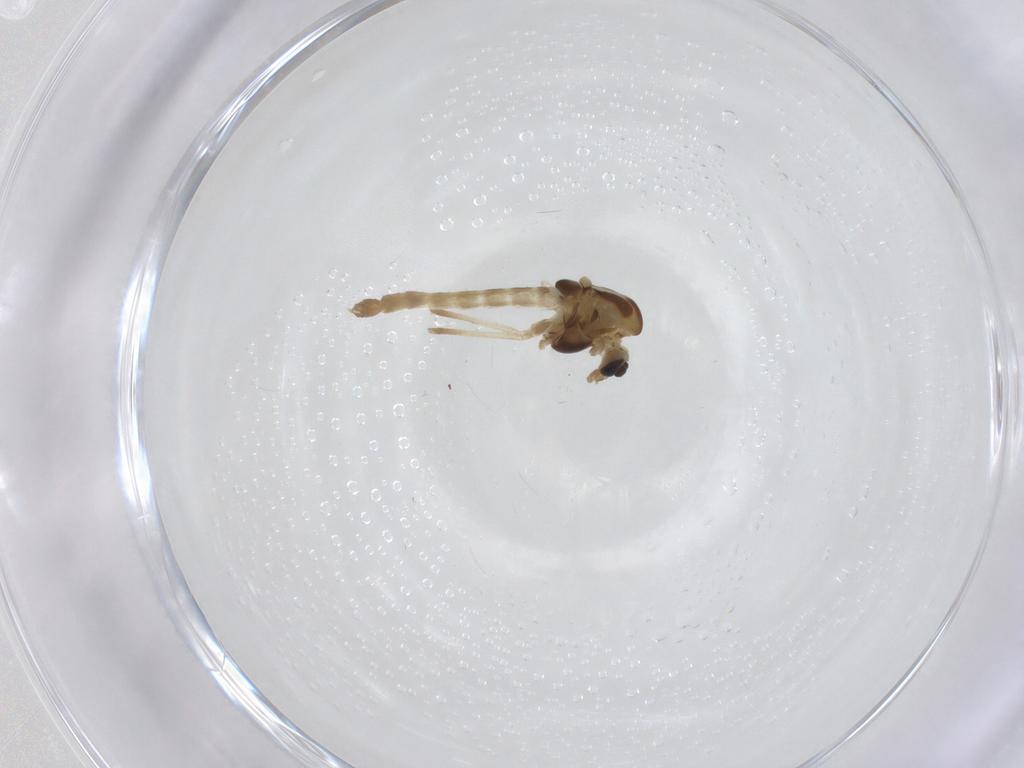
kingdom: Animalia
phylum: Arthropoda
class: Insecta
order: Diptera
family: Chironomidae
